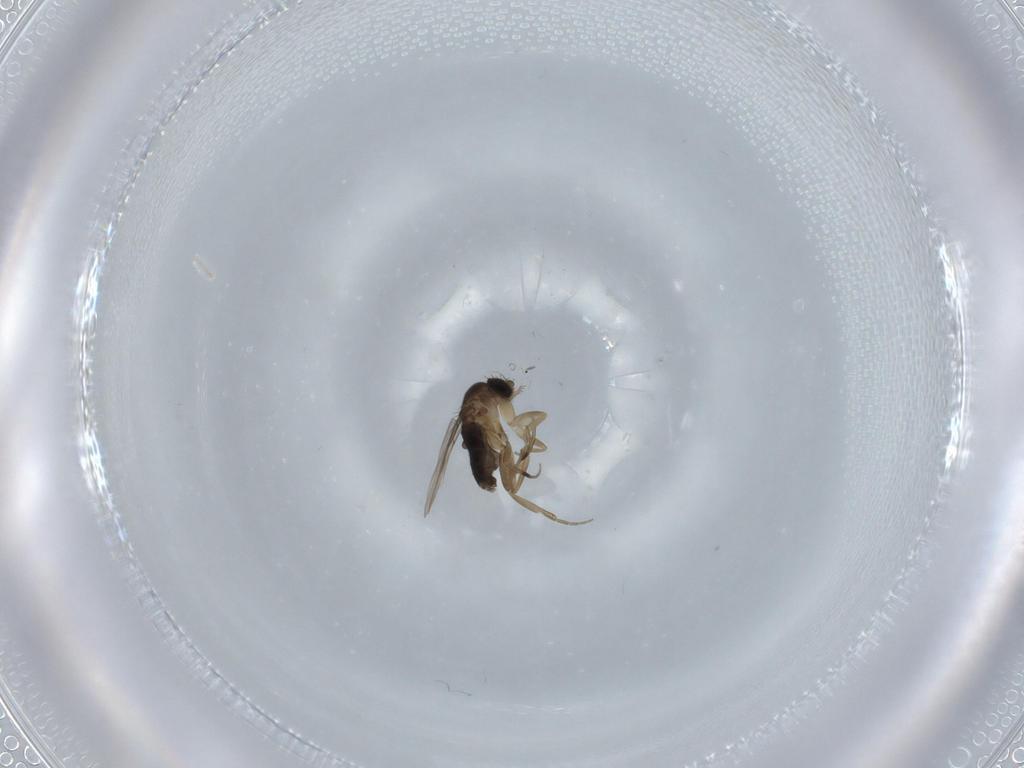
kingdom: Animalia
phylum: Arthropoda
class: Insecta
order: Diptera
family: Phoridae
